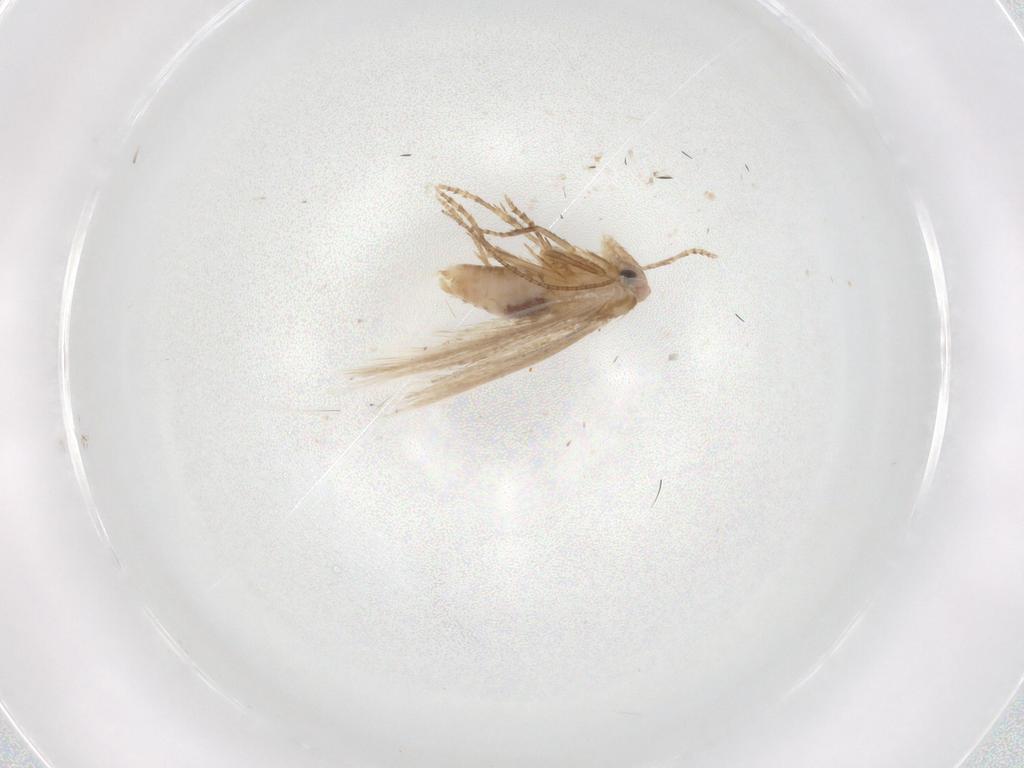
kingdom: Animalia
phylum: Arthropoda
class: Insecta
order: Lepidoptera
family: Bucculatricidae
